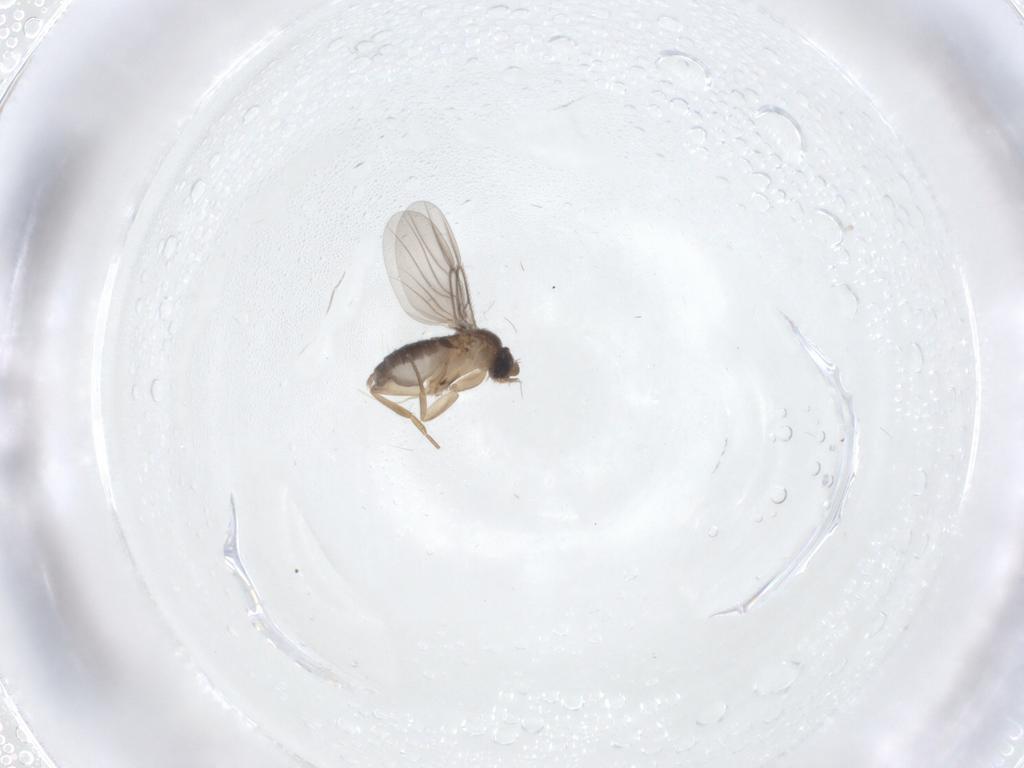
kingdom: Animalia
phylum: Arthropoda
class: Insecta
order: Diptera
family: Phoridae
